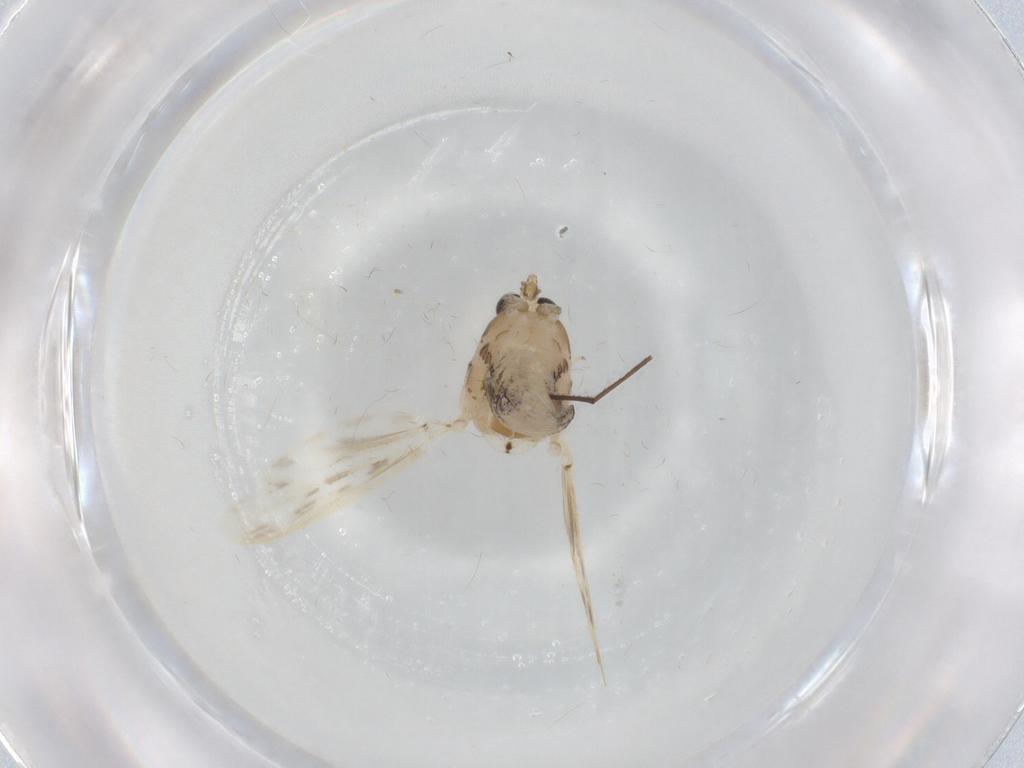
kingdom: Animalia
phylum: Arthropoda
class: Insecta
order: Diptera
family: Chaoboridae
